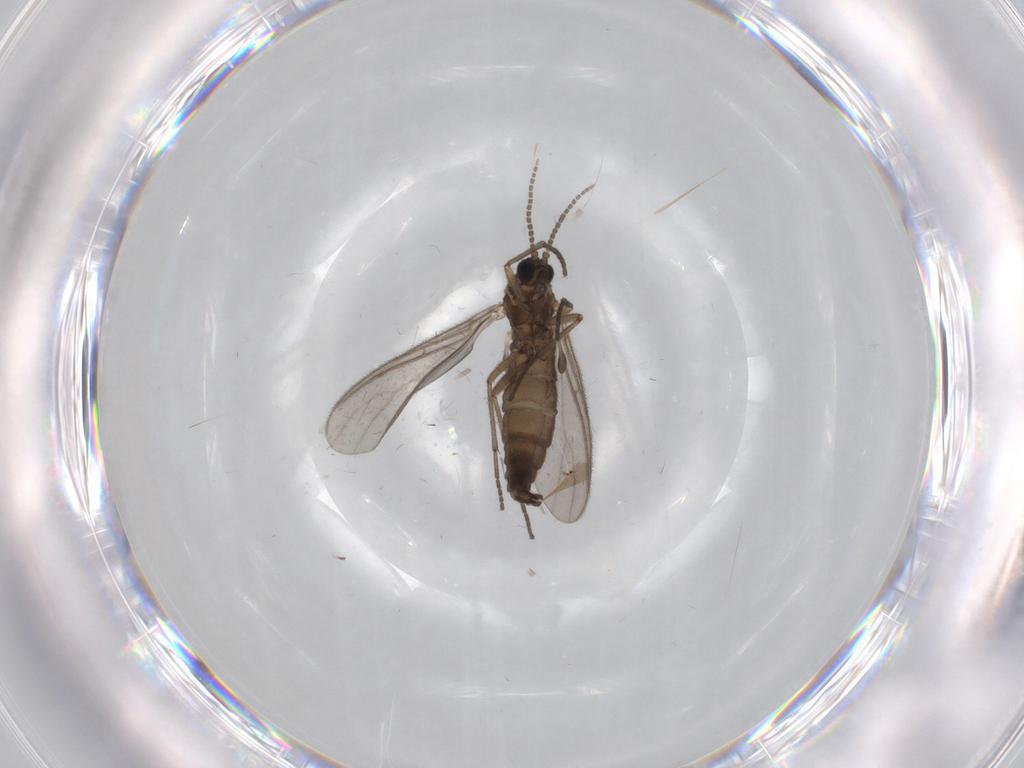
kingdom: Animalia
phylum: Arthropoda
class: Insecta
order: Diptera
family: Sciaridae
